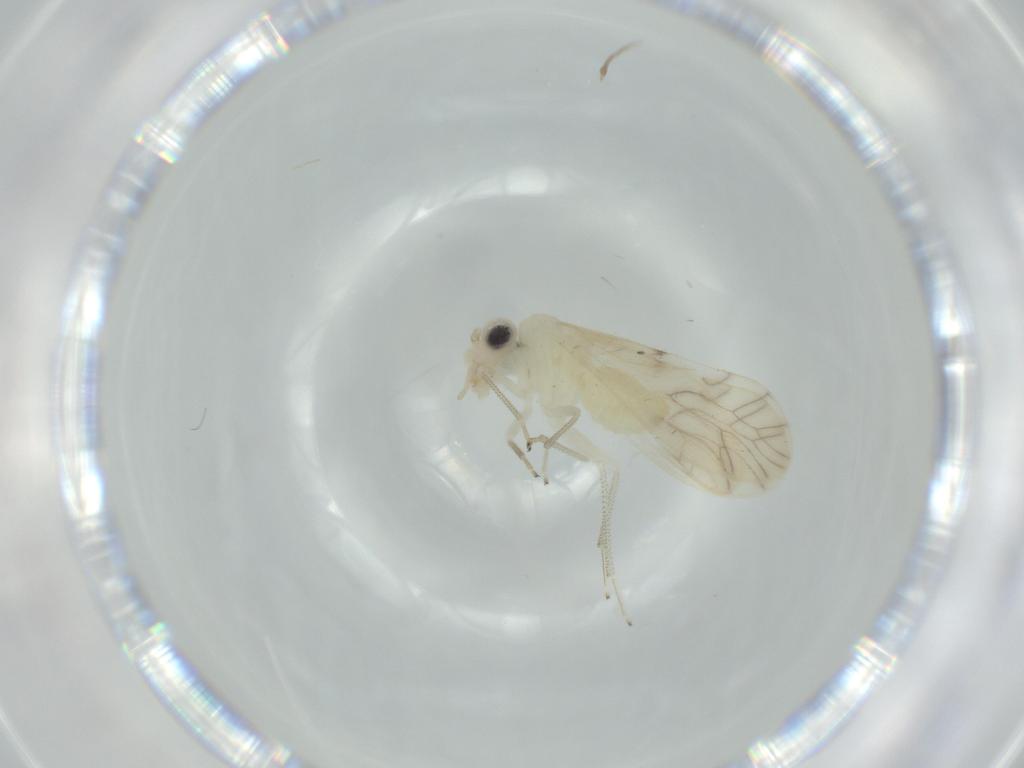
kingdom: Animalia
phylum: Arthropoda
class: Insecta
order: Psocodea
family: Caeciliusidae
